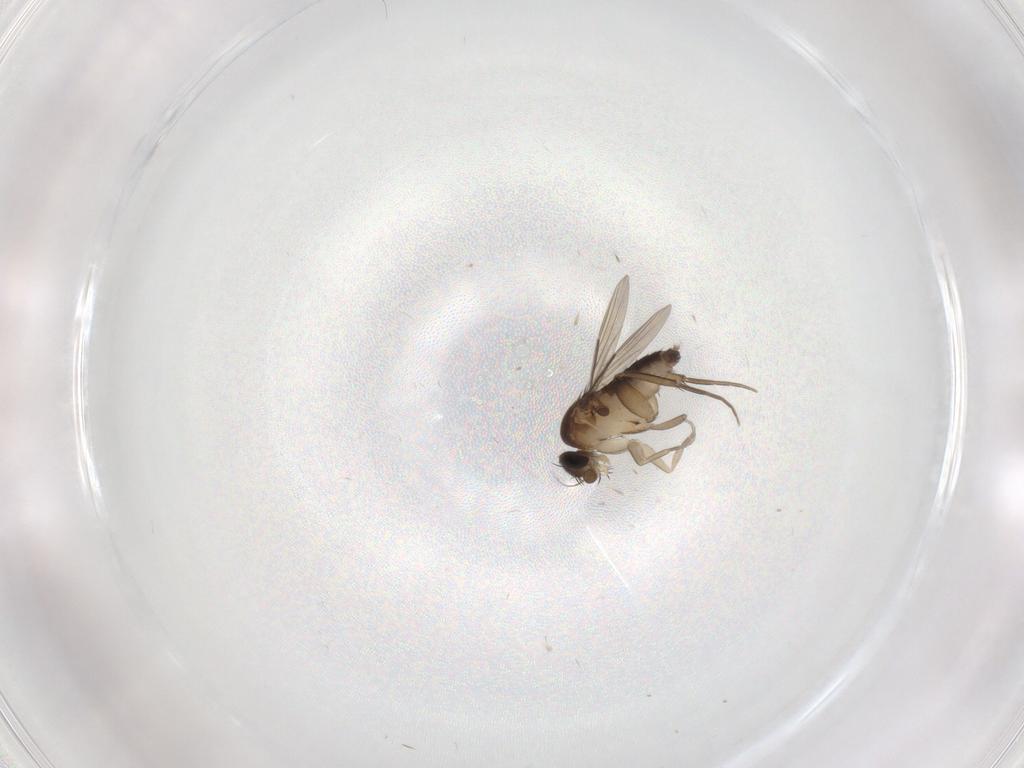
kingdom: Animalia
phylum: Arthropoda
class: Insecta
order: Diptera
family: Phoridae
